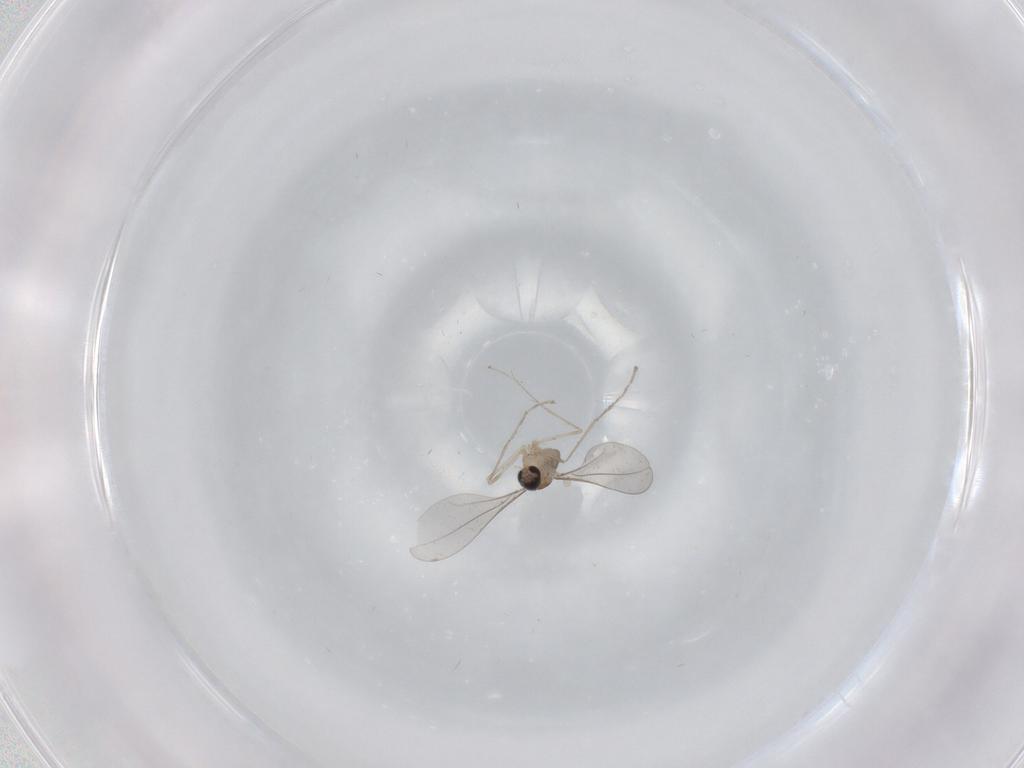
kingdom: Animalia
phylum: Arthropoda
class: Insecta
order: Diptera
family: Cecidomyiidae
